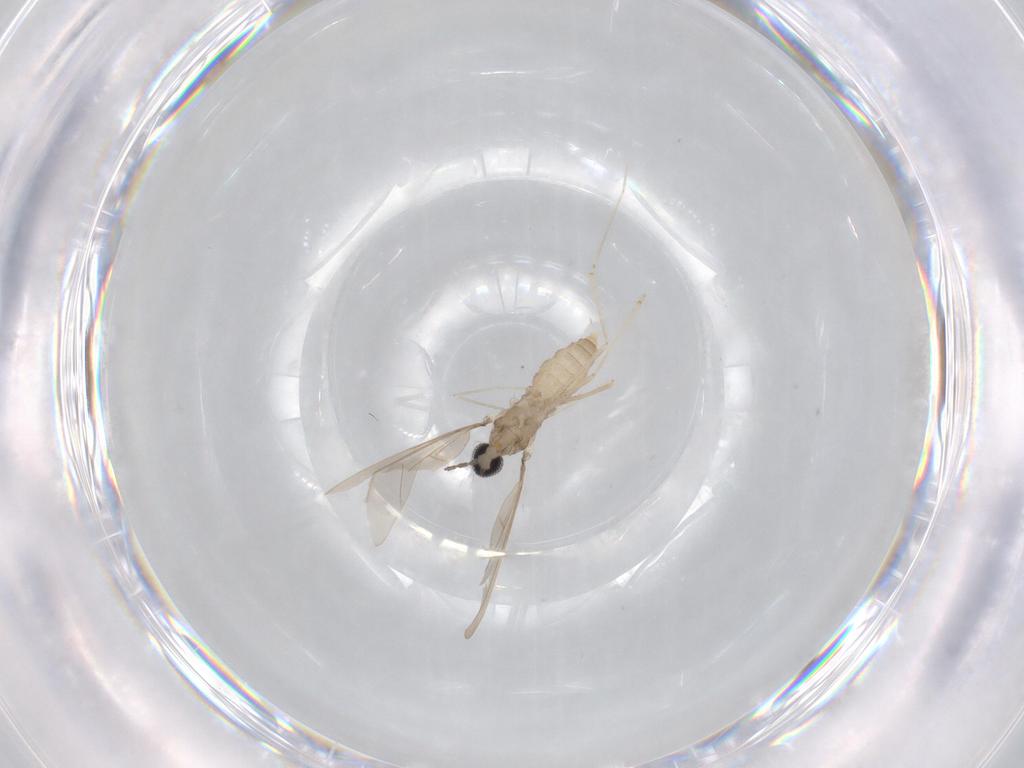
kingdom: Animalia
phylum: Arthropoda
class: Insecta
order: Diptera
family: Cecidomyiidae
